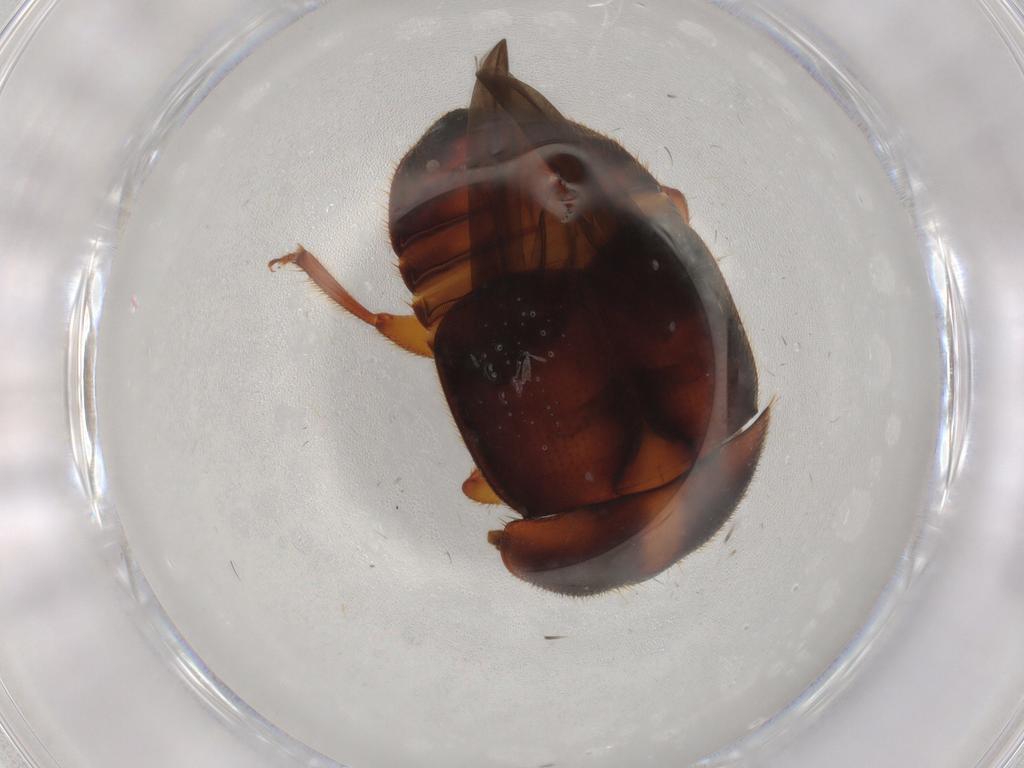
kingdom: Animalia
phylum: Arthropoda
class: Insecta
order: Coleoptera
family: Nitidulidae
